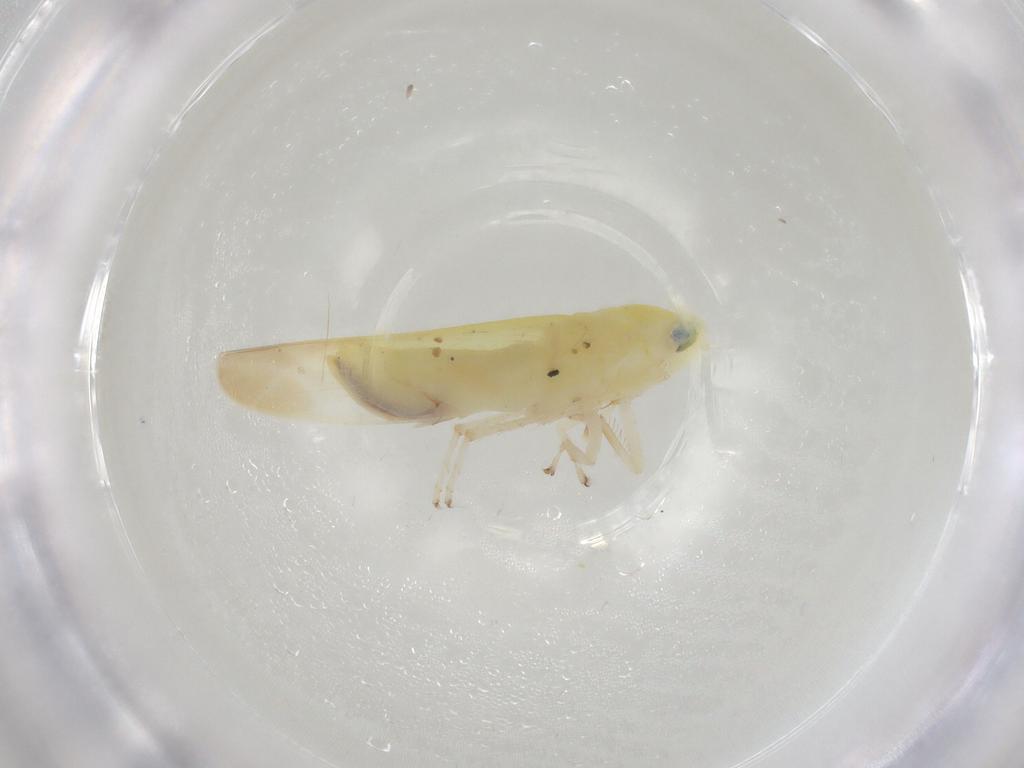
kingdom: Animalia
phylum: Arthropoda
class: Insecta
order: Hemiptera
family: Cicadellidae
